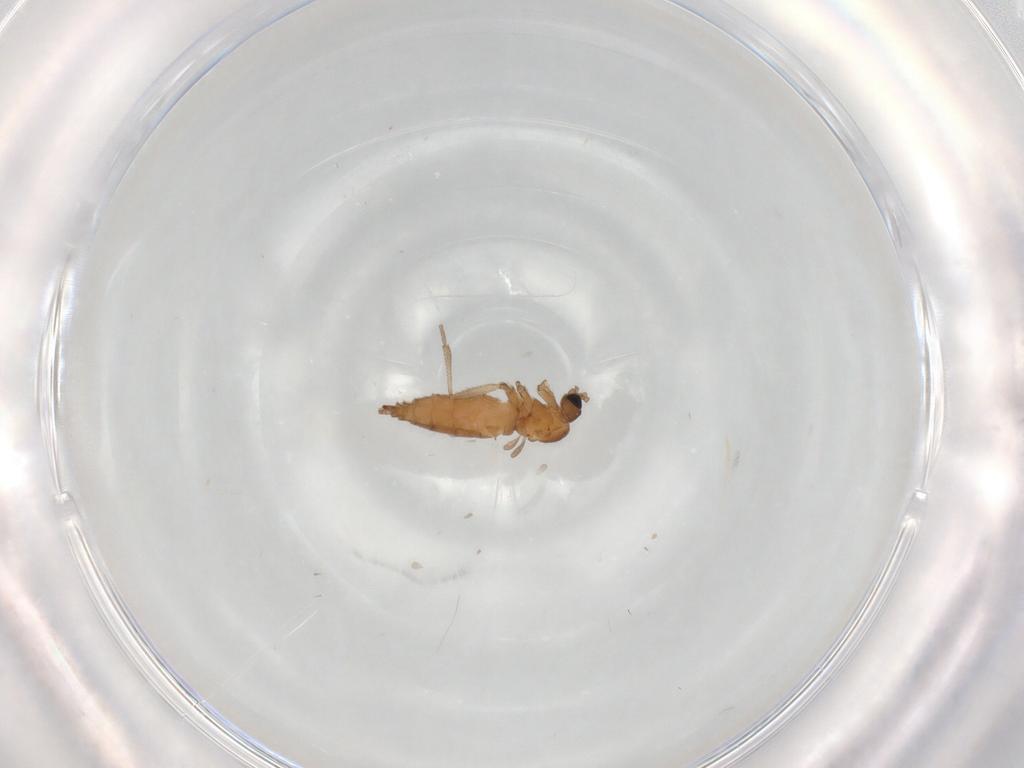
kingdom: Animalia
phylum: Arthropoda
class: Insecta
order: Diptera
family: Sciaridae
